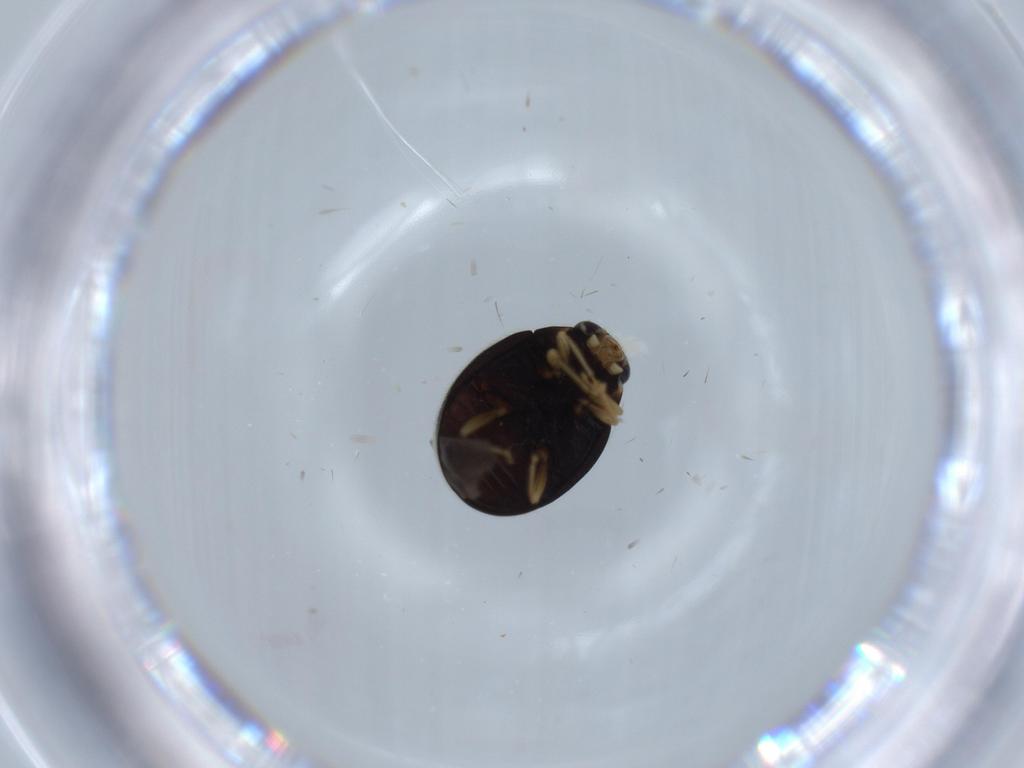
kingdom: Animalia
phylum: Arthropoda
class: Insecta
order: Coleoptera
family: Coccinellidae
